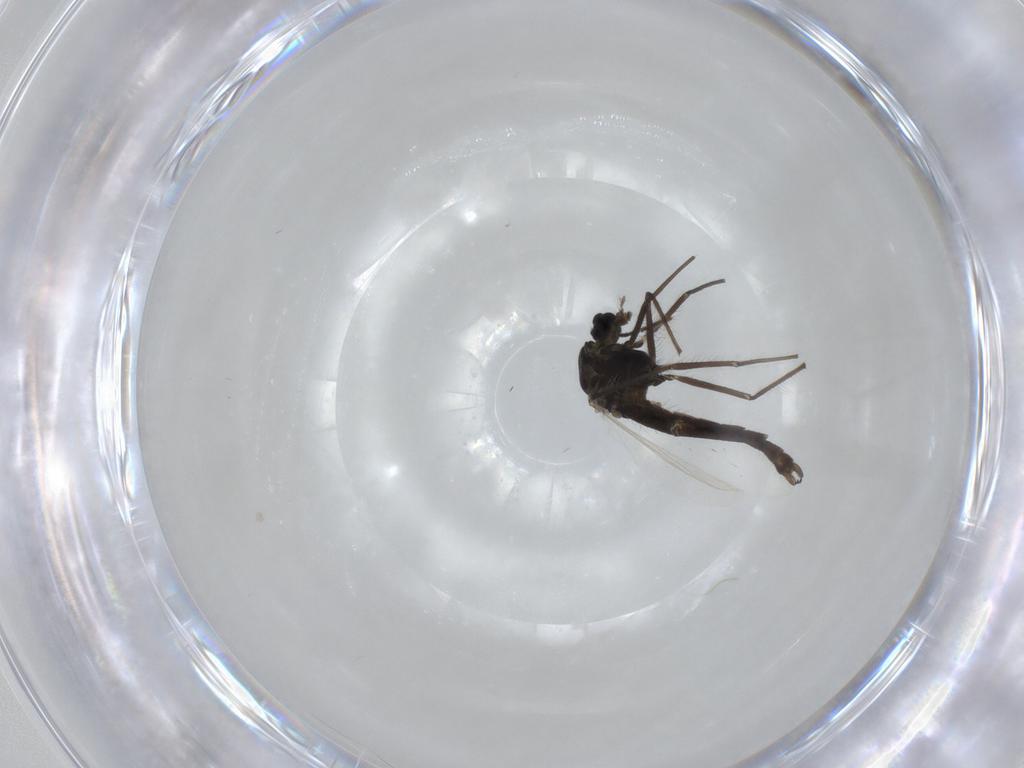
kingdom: Animalia
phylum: Arthropoda
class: Insecta
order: Diptera
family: Chironomidae
